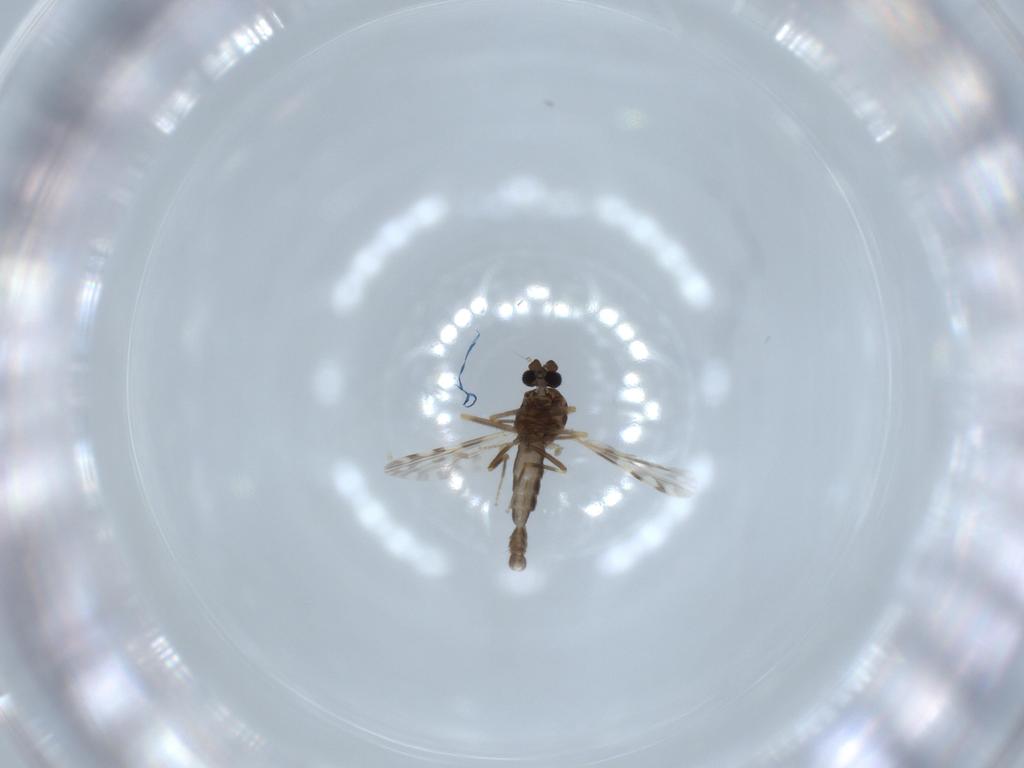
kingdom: Animalia
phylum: Arthropoda
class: Insecta
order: Diptera
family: Ceratopogonidae
